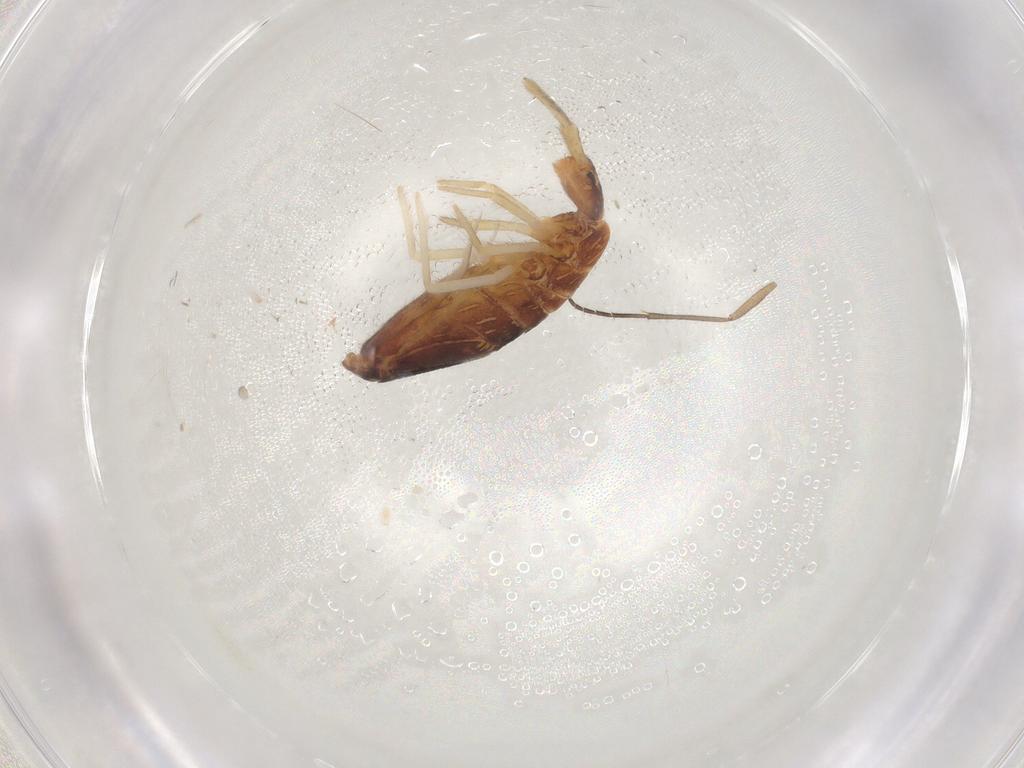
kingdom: Animalia
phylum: Arthropoda
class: Collembola
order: Entomobryomorpha
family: Entomobryidae
